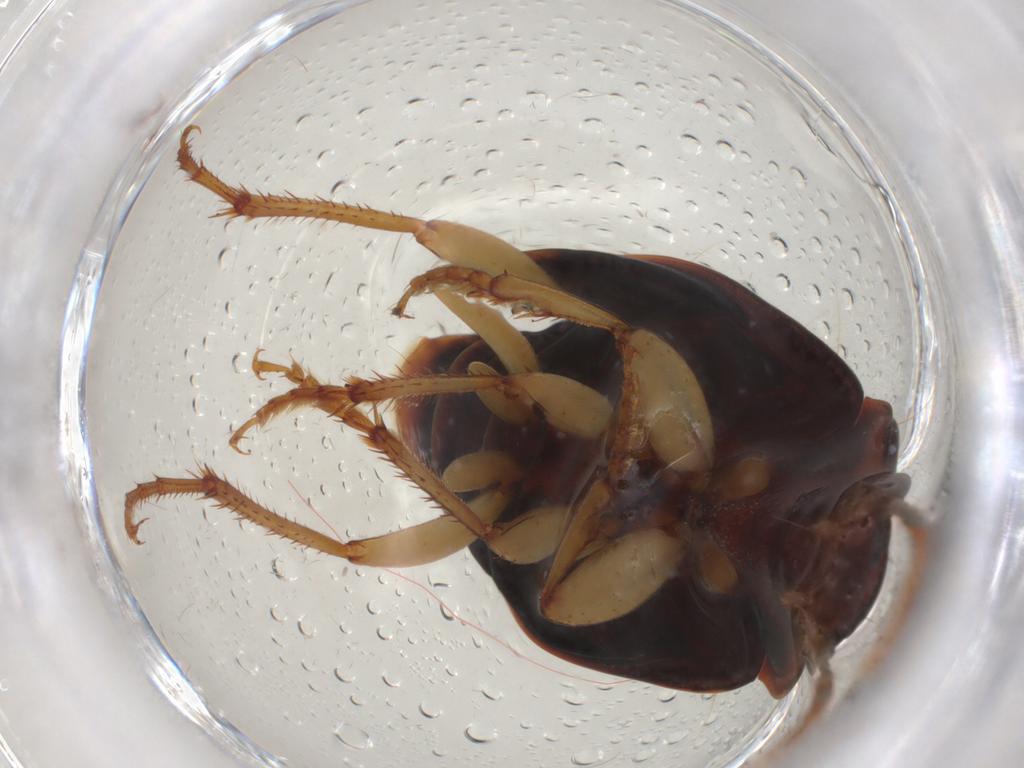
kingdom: Animalia
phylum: Arthropoda
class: Insecta
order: Coleoptera
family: Carabidae
